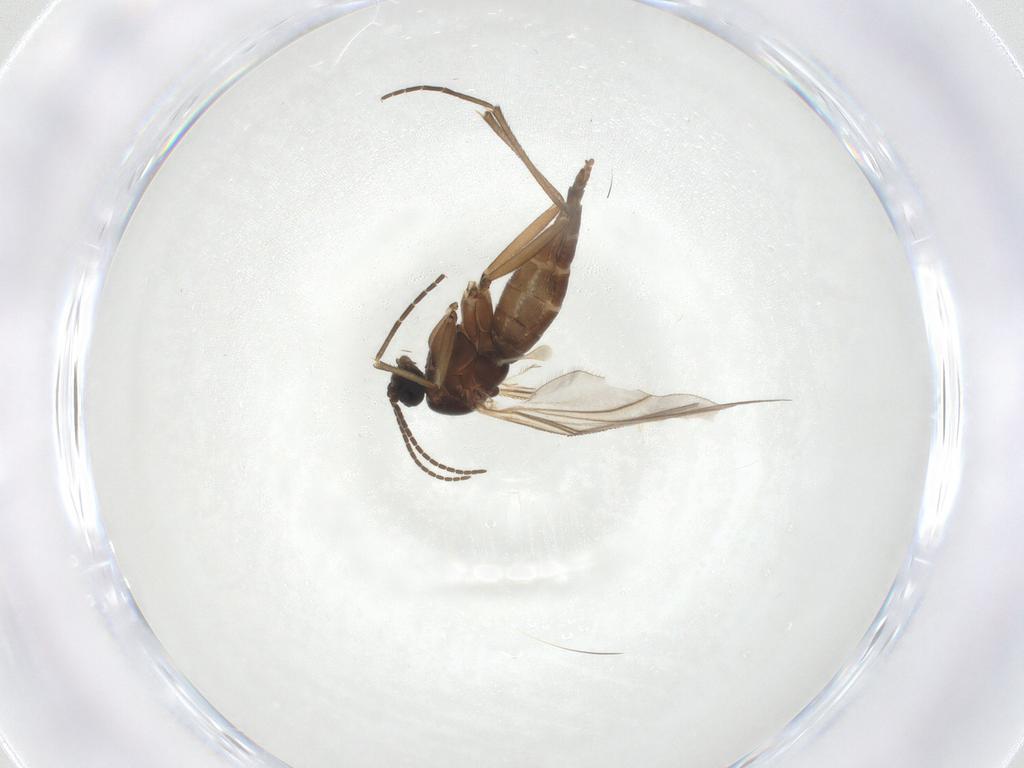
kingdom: Animalia
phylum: Arthropoda
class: Insecta
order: Diptera
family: Sciaridae
